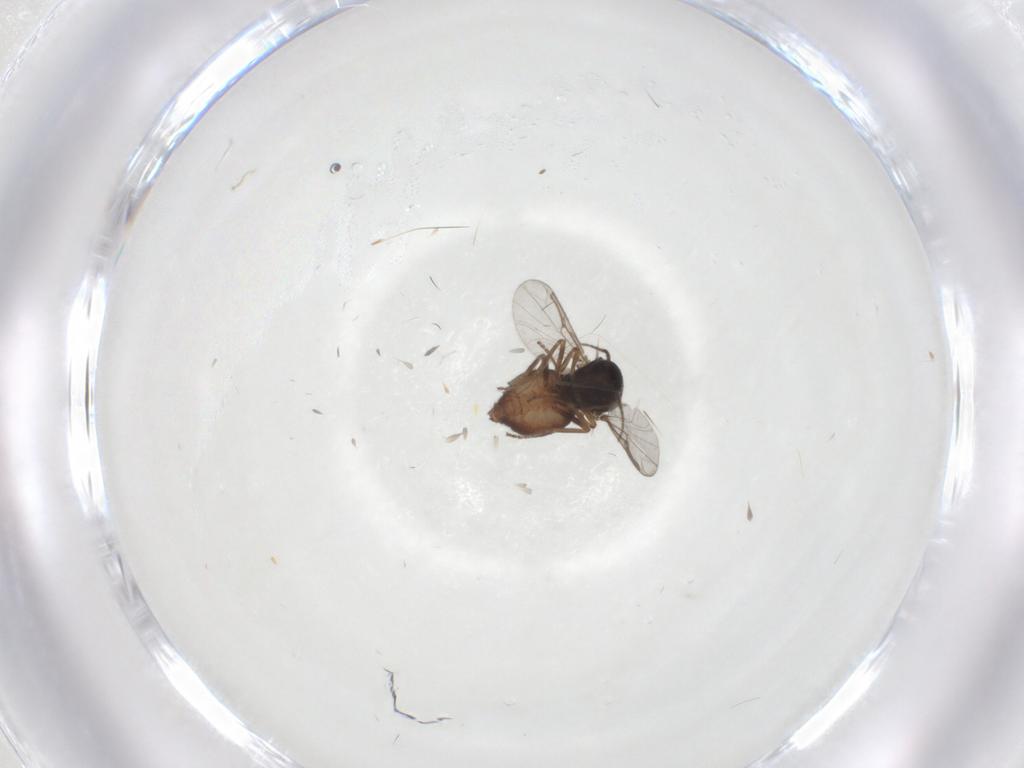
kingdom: Animalia
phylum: Arthropoda
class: Insecta
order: Diptera
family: Ceratopogonidae
